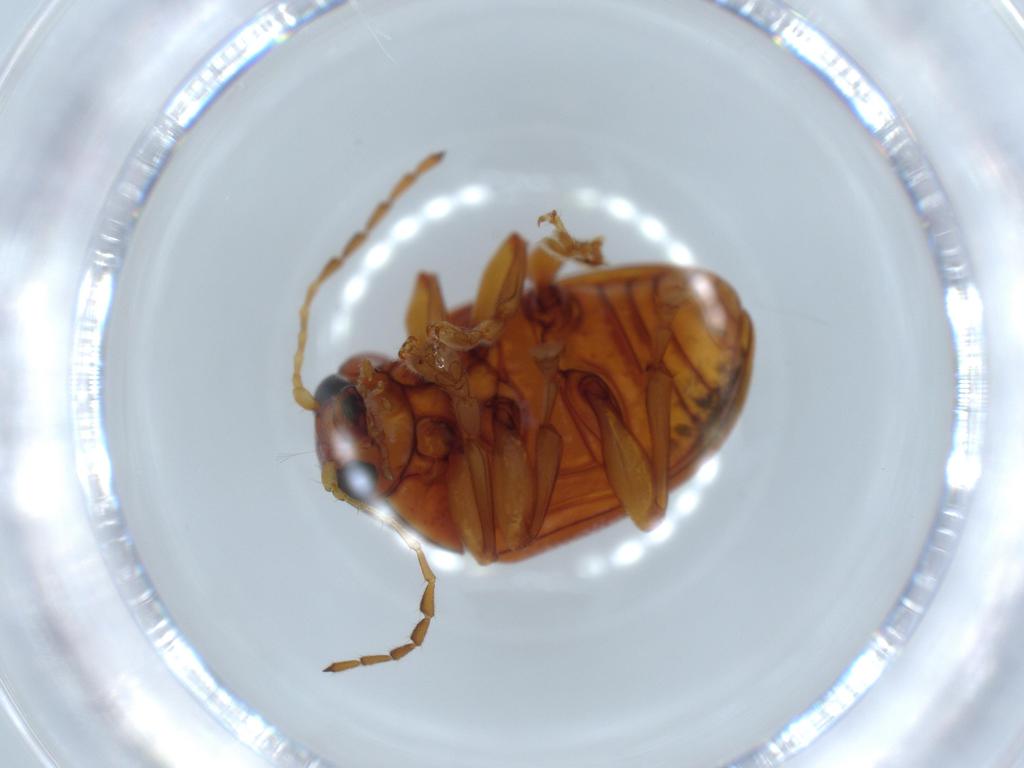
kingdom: Animalia
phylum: Arthropoda
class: Insecta
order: Coleoptera
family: Chrysomelidae
